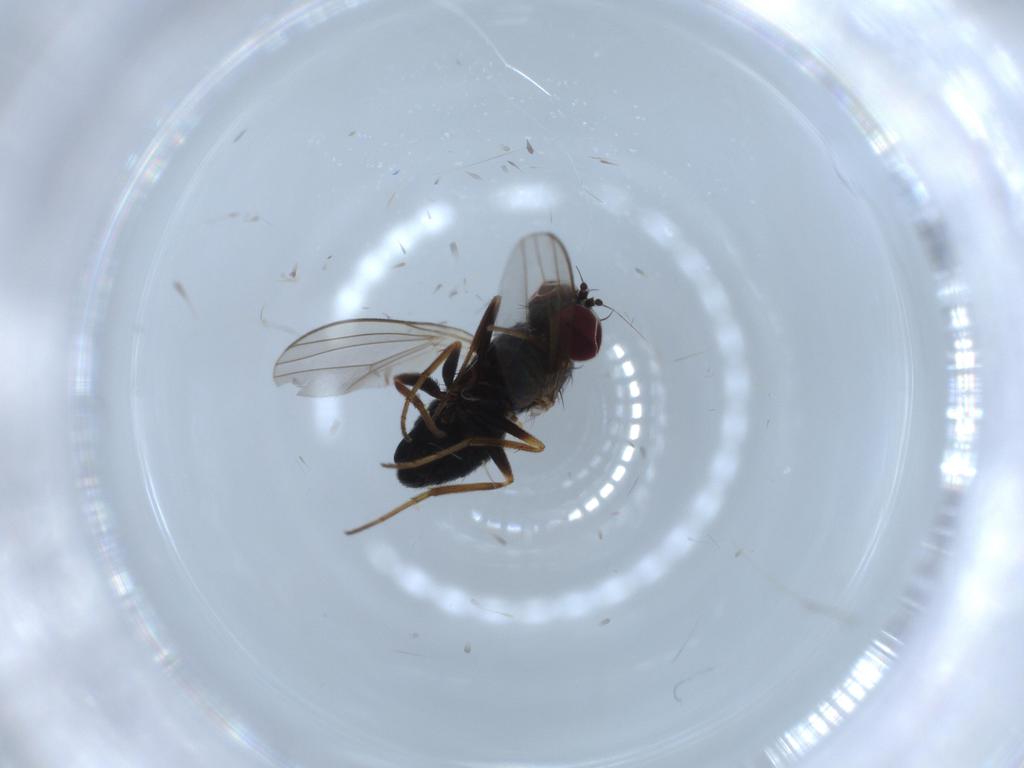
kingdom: Animalia
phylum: Arthropoda
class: Insecta
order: Diptera
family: Dolichopodidae
